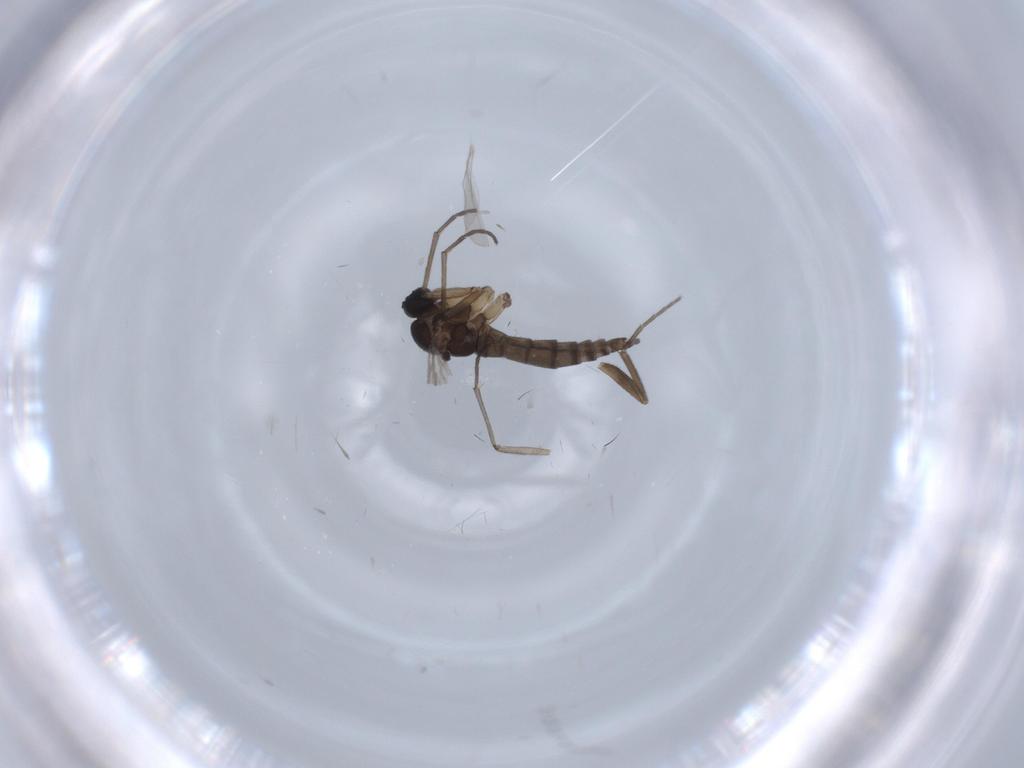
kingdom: Animalia
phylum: Arthropoda
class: Insecta
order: Diptera
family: Sciaridae
